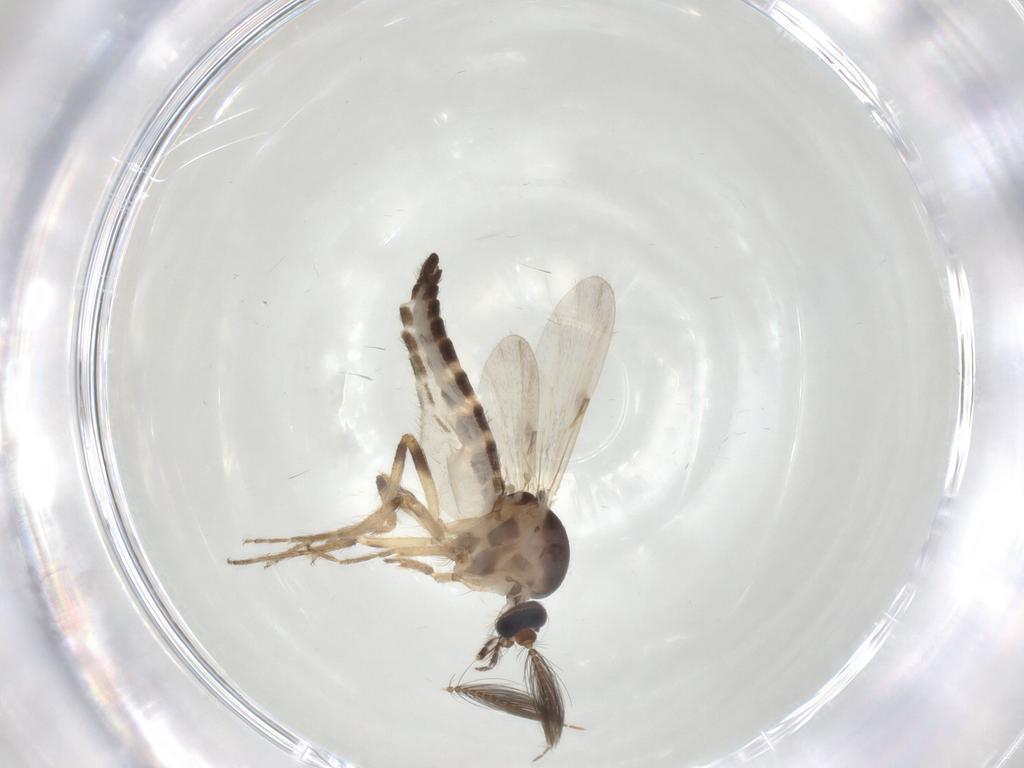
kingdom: Animalia
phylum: Arthropoda
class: Insecta
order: Diptera
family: Ceratopogonidae
